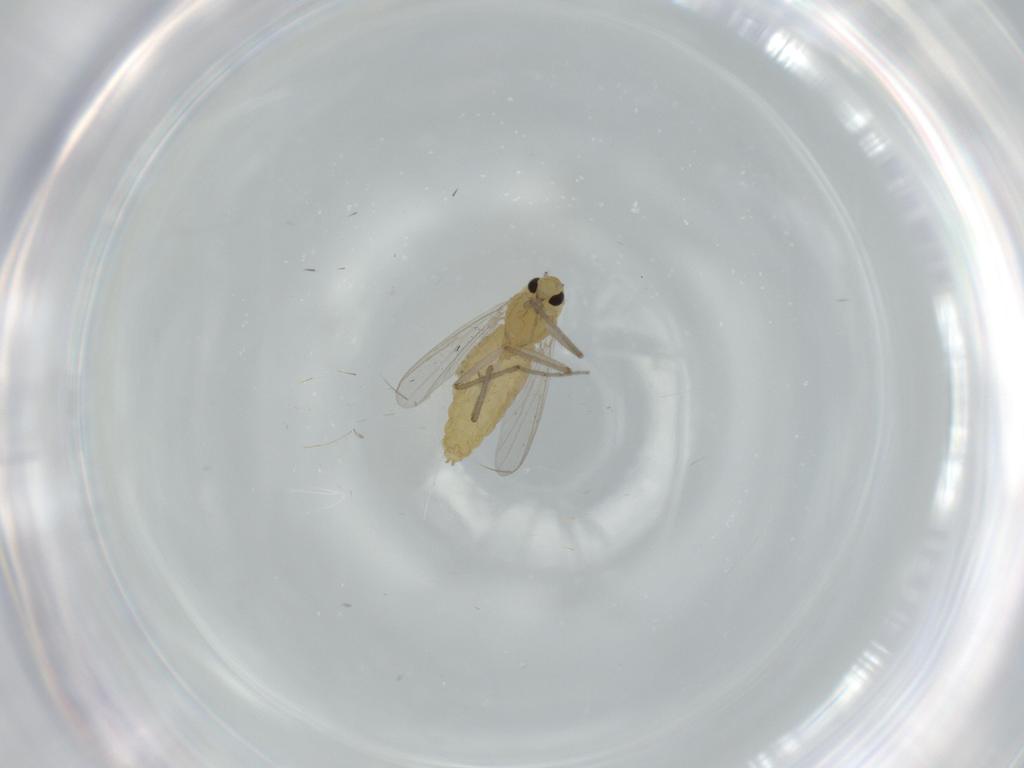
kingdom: Animalia
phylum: Arthropoda
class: Insecta
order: Diptera
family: Chironomidae
